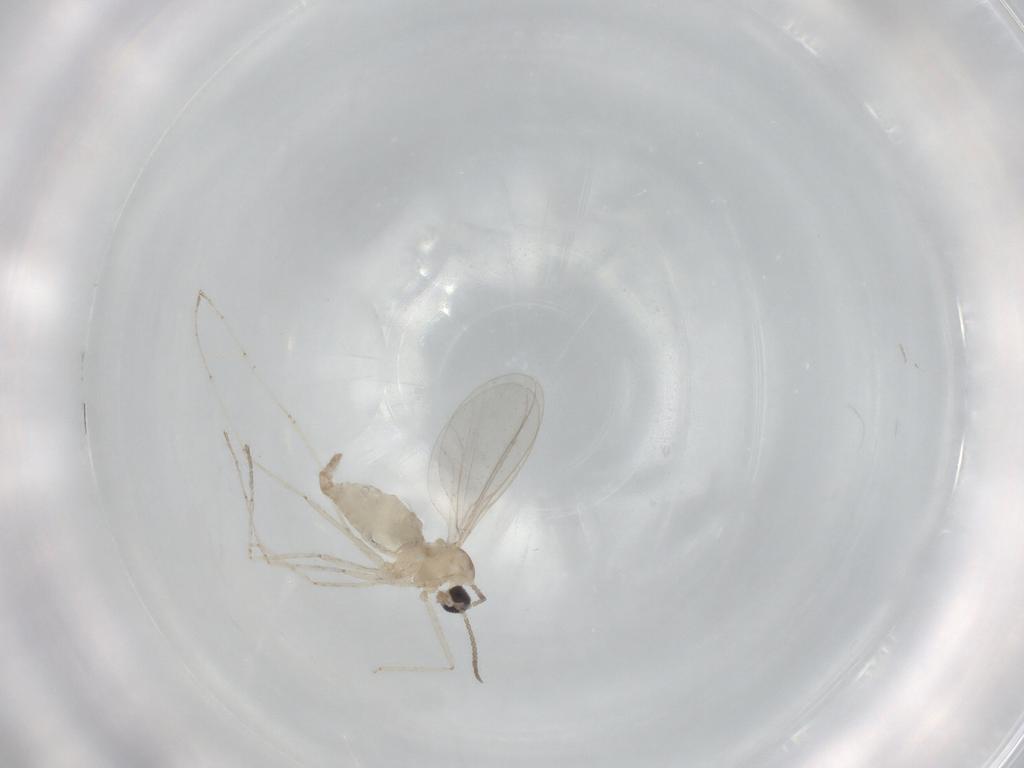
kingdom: Animalia
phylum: Arthropoda
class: Insecta
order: Diptera
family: Cecidomyiidae
